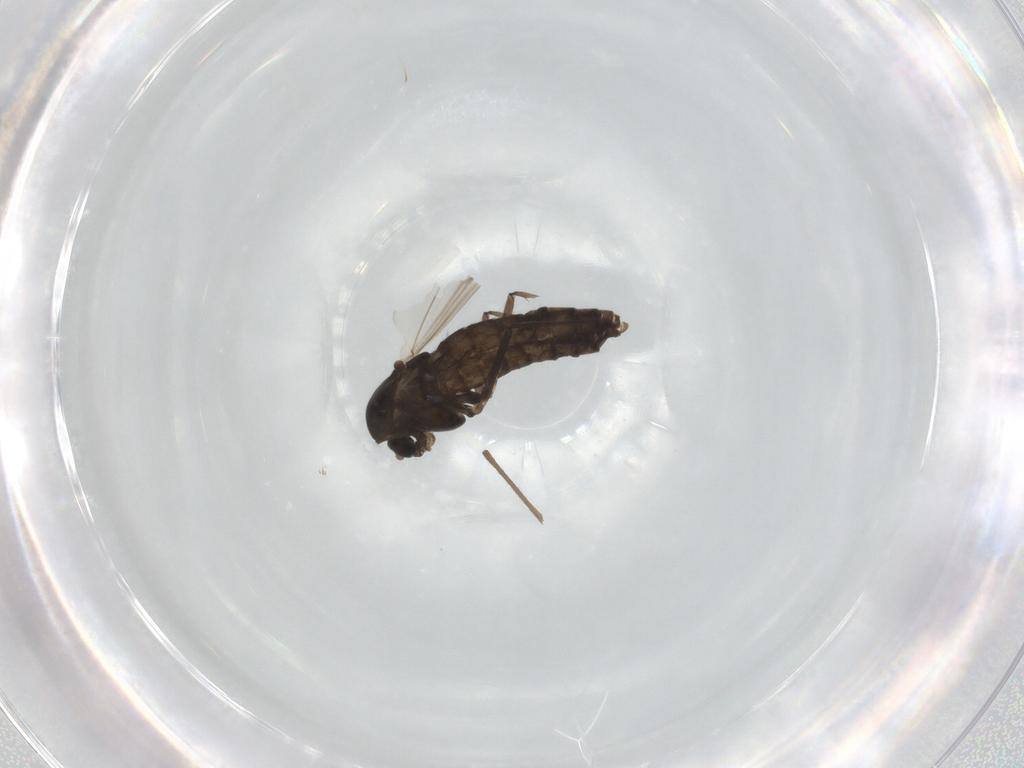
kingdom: Animalia
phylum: Arthropoda
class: Insecta
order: Diptera
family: Chironomidae
